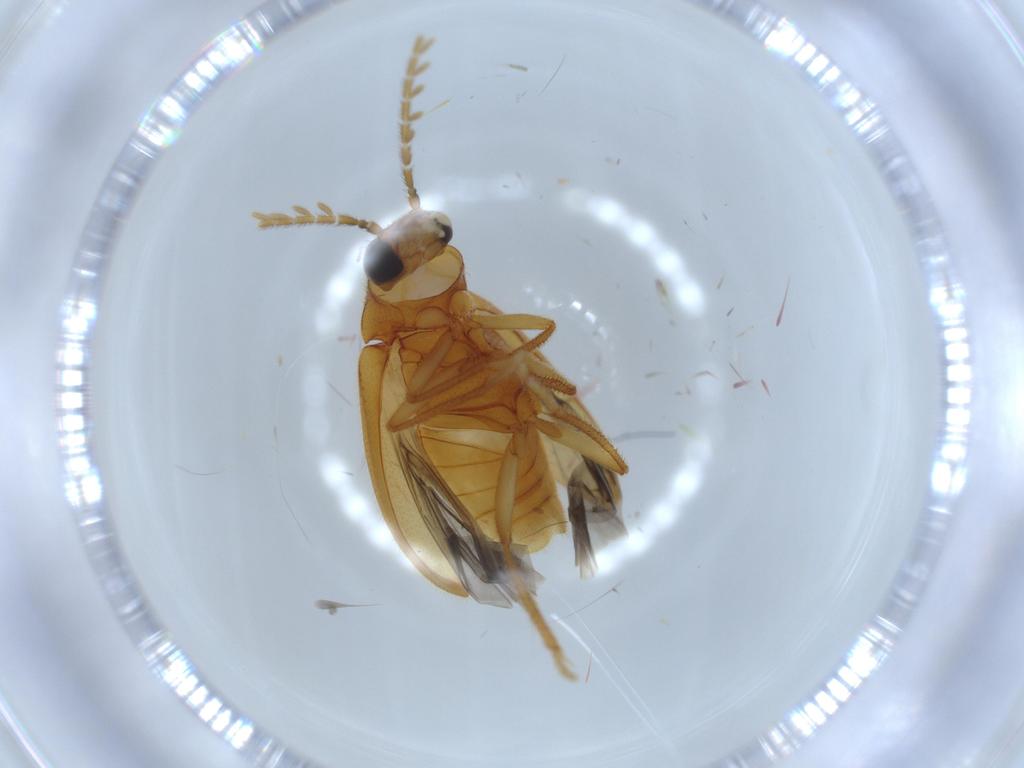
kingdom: Animalia
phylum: Arthropoda
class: Insecta
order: Coleoptera
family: Ptilodactylidae
